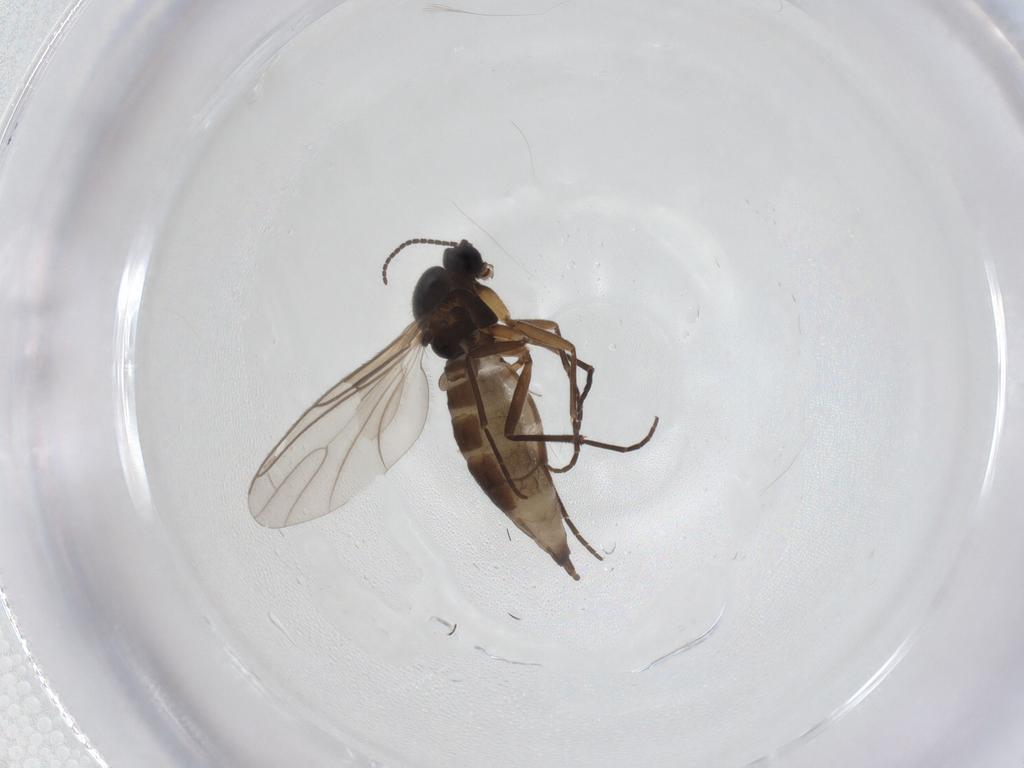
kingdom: Animalia
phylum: Arthropoda
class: Insecta
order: Diptera
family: Sciaridae
